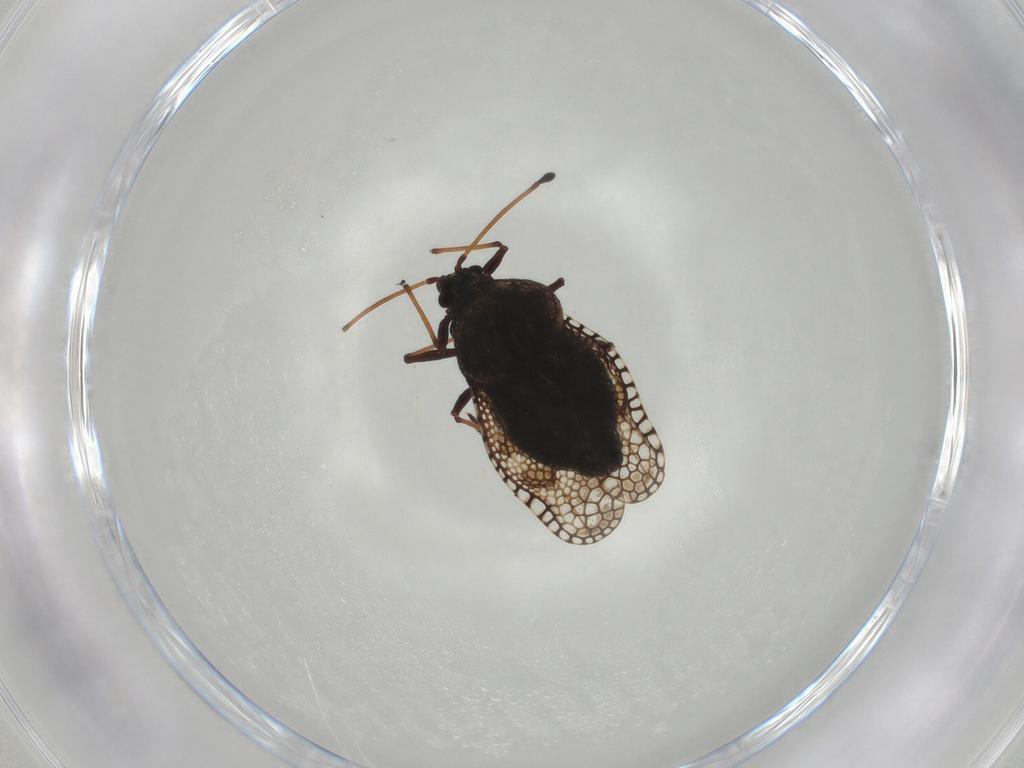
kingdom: Animalia
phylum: Arthropoda
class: Insecta
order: Hemiptera
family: Tingidae
